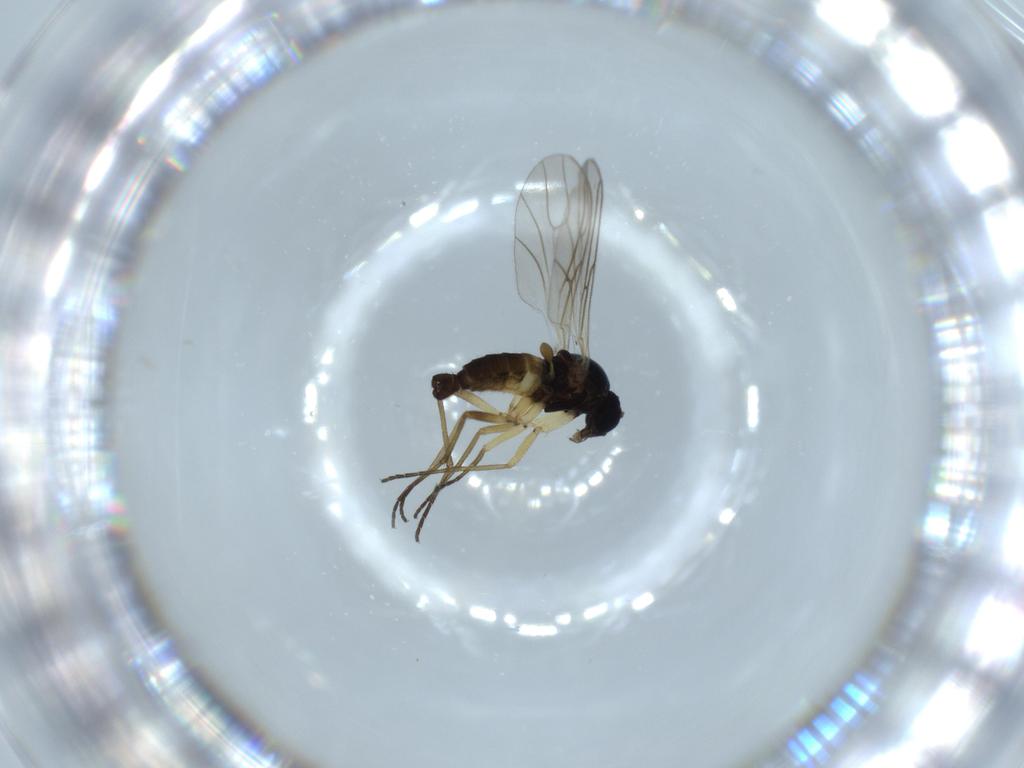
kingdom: Animalia
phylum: Arthropoda
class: Insecta
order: Diptera
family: Sciaridae
